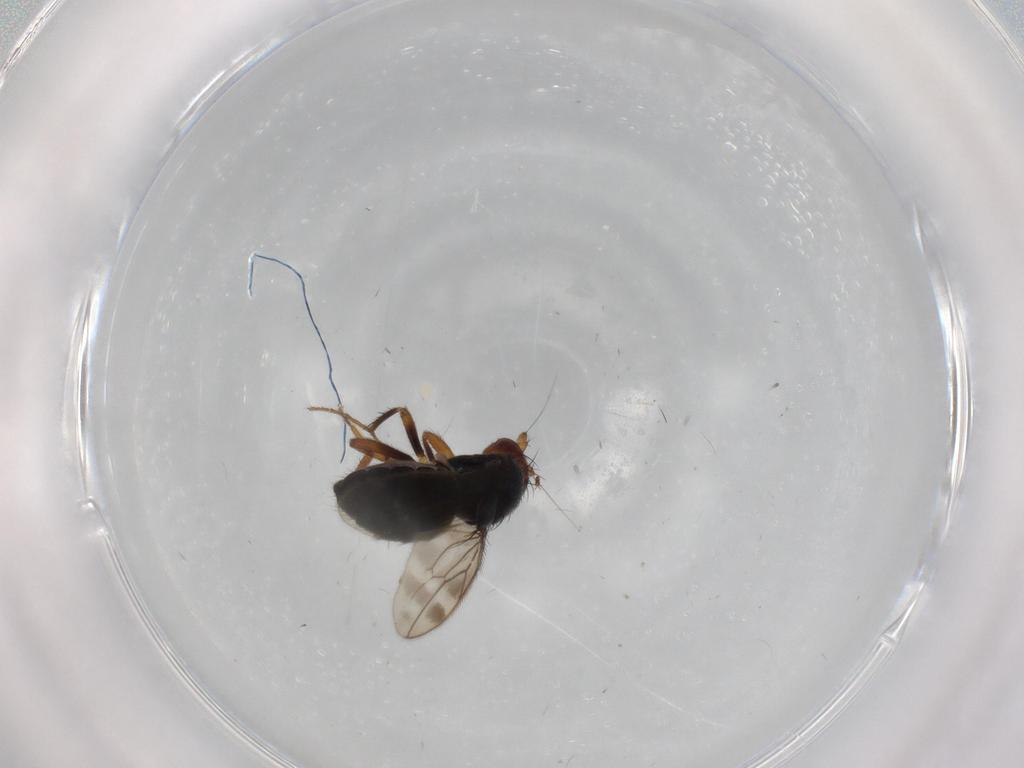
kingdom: Animalia
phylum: Arthropoda
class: Insecta
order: Diptera
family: Sphaeroceridae
